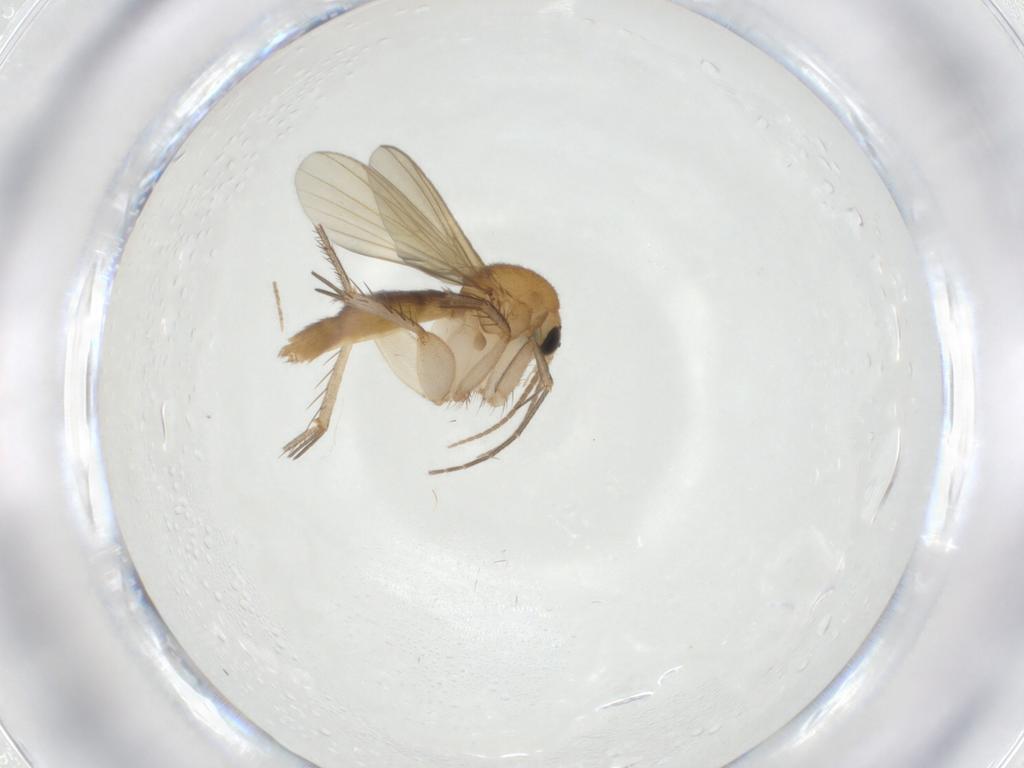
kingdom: Animalia
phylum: Arthropoda
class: Insecta
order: Diptera
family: Mycetophilidae
